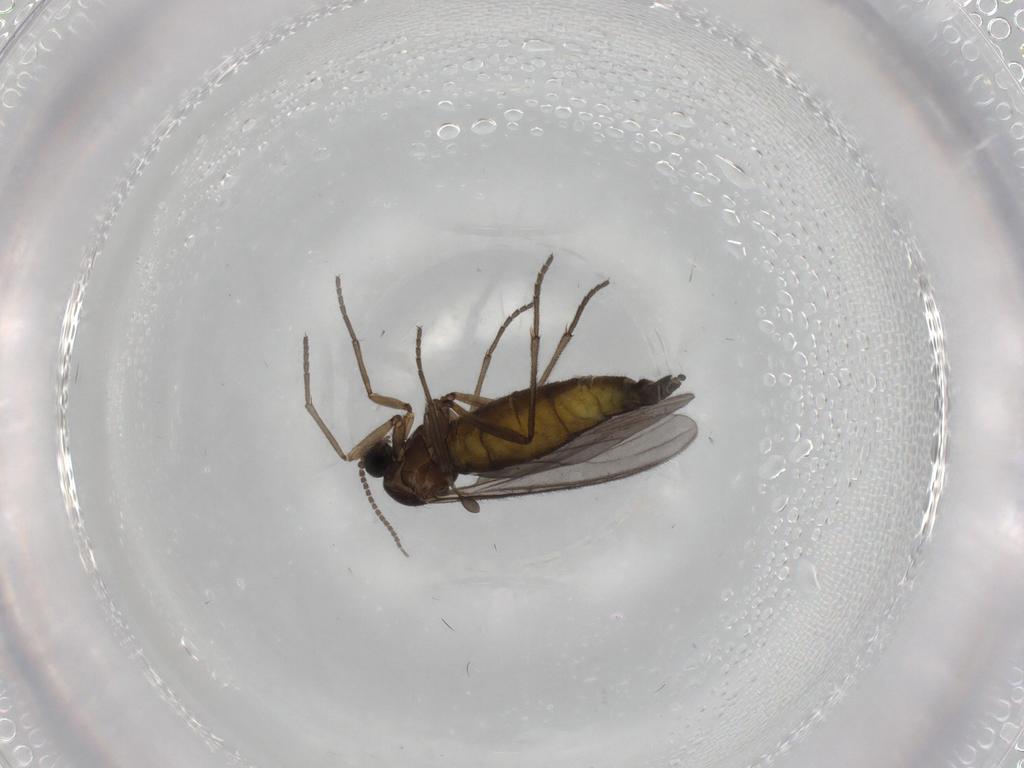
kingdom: Animalia
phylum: Arthropoda
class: Insecta
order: Diptera
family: Sciaridae
